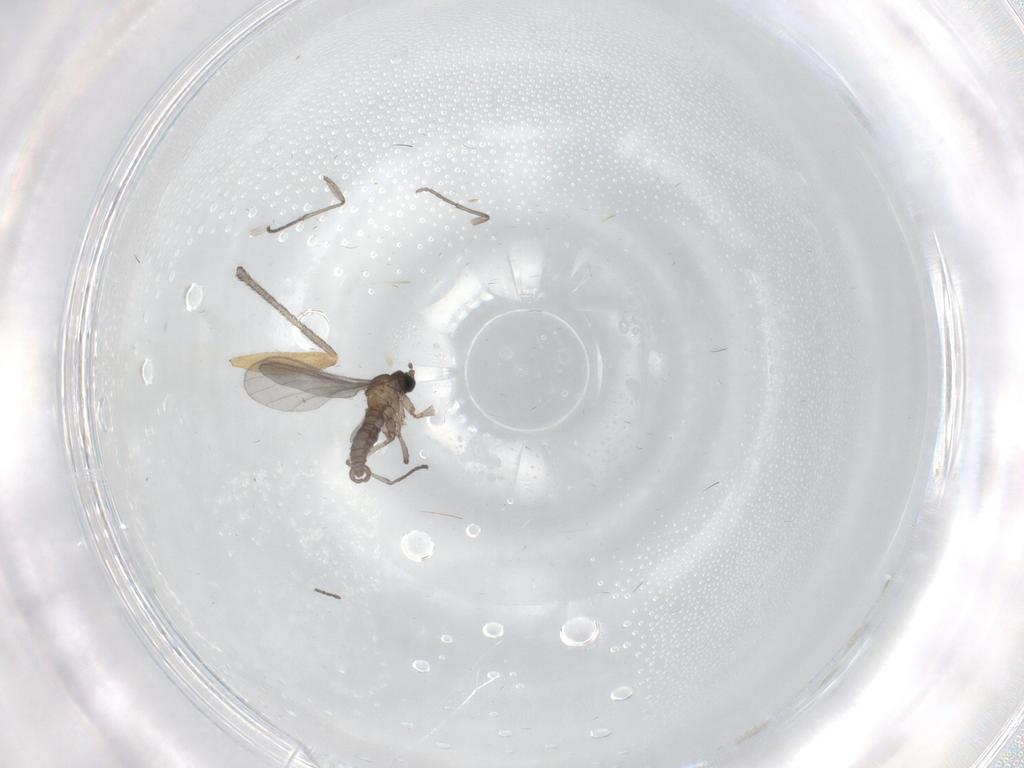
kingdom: Animalia
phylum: Arthropoda
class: Insecta
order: Diptera
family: Sciaridae
